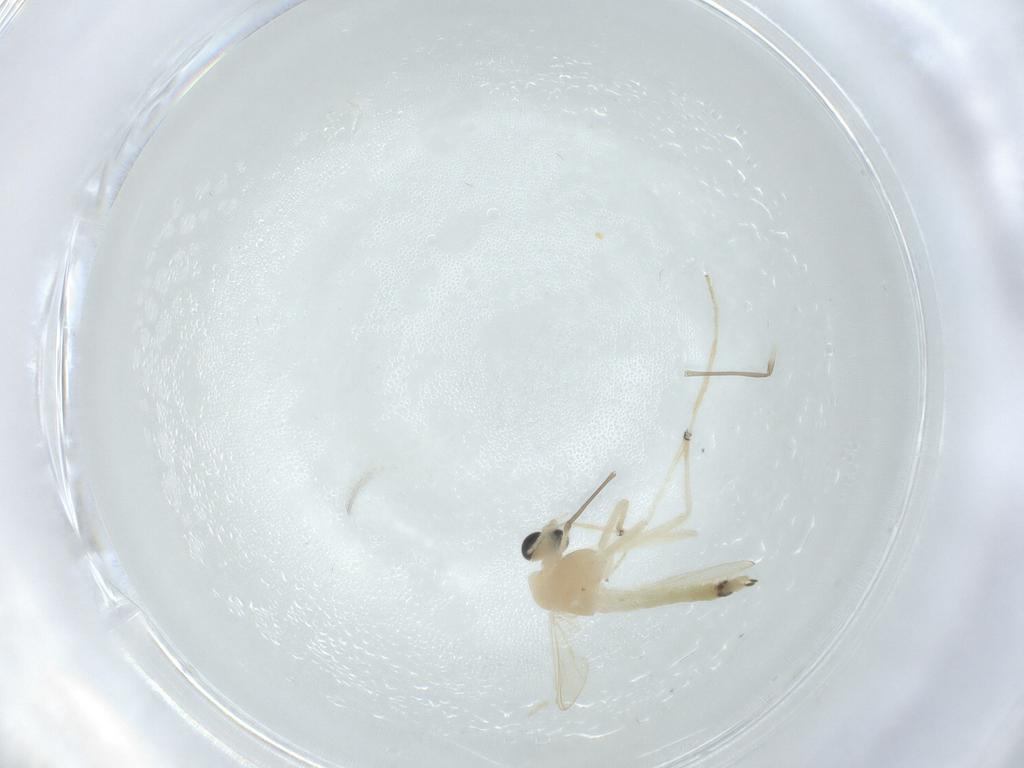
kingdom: Animalia
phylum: Arthropoda
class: Insecta
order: Diptera
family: Chironomidae
